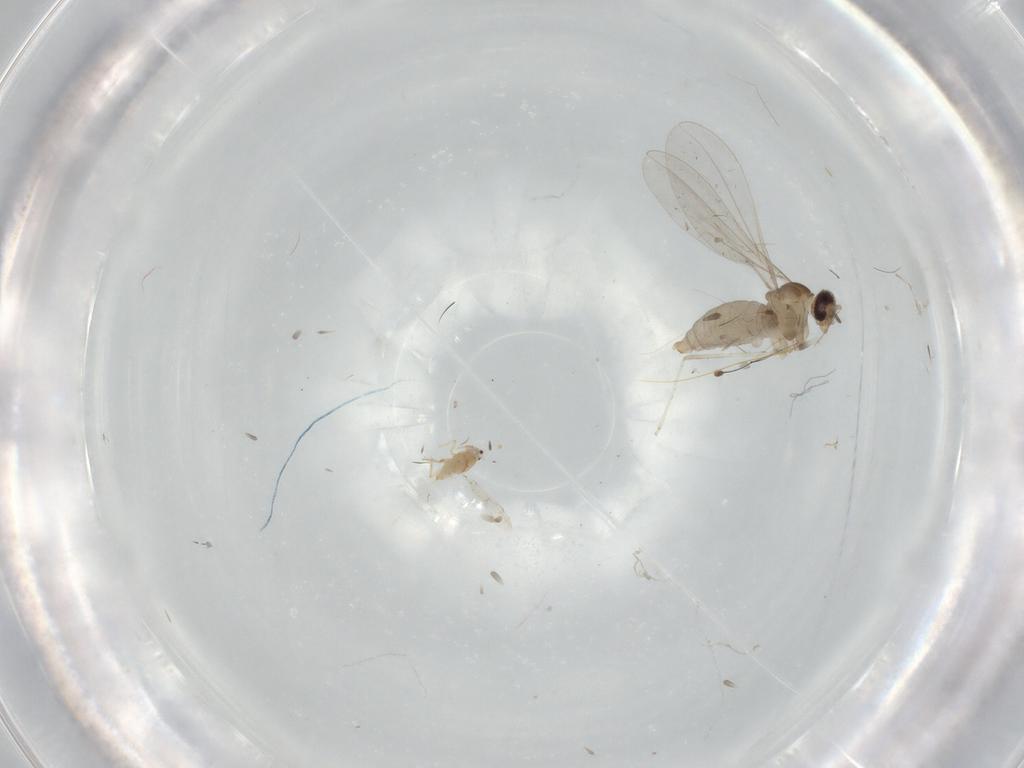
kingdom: Animalia
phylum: Arthropoda
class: Insecta
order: Diptera
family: Cecidomyiidae
